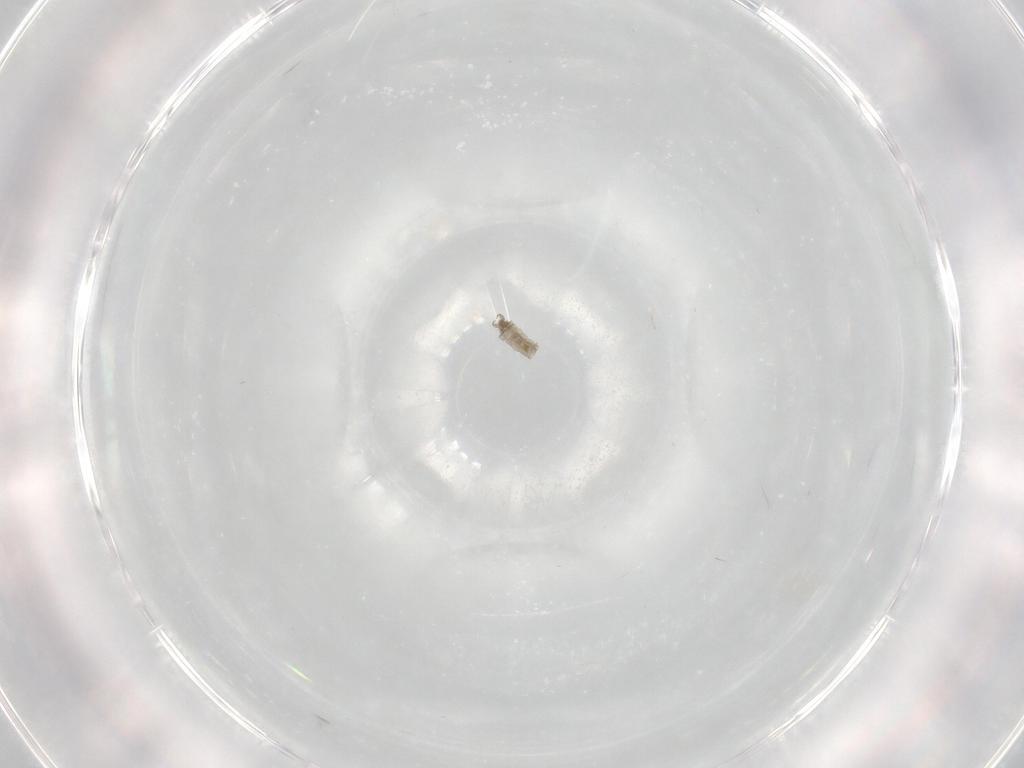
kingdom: Animalia
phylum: Arthropoda
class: Insecta
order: Diptera
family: Cecidomyiidae
